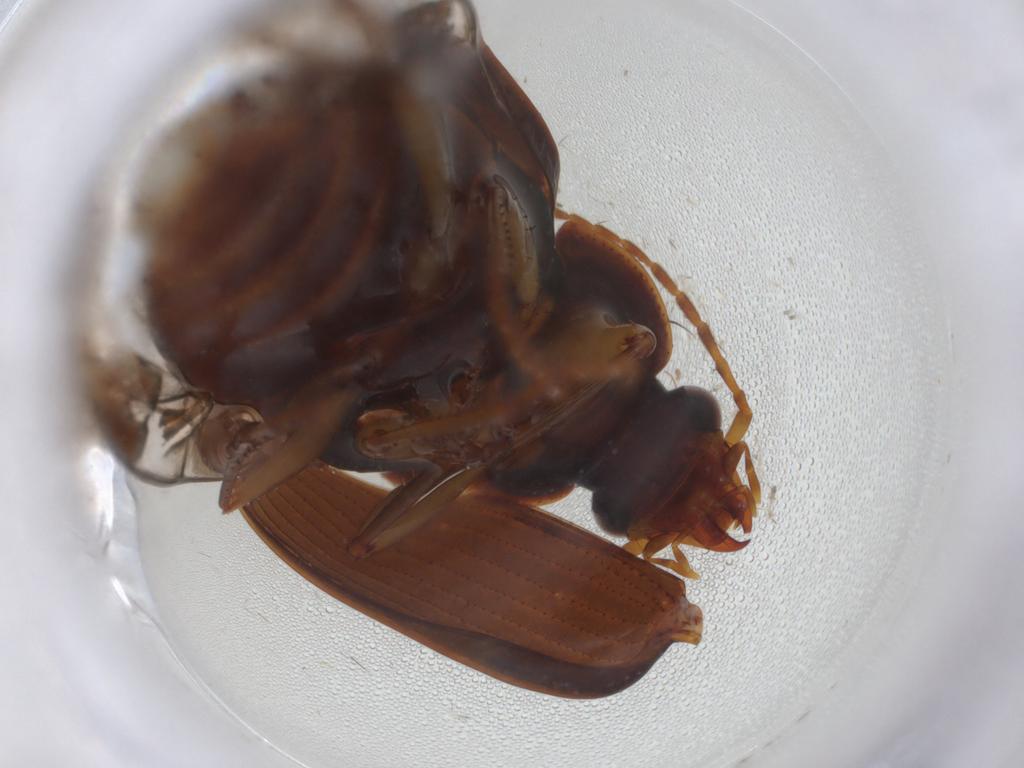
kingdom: Animalia
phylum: Arthropoda
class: Insecta
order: Coleoptera
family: Carabidae
